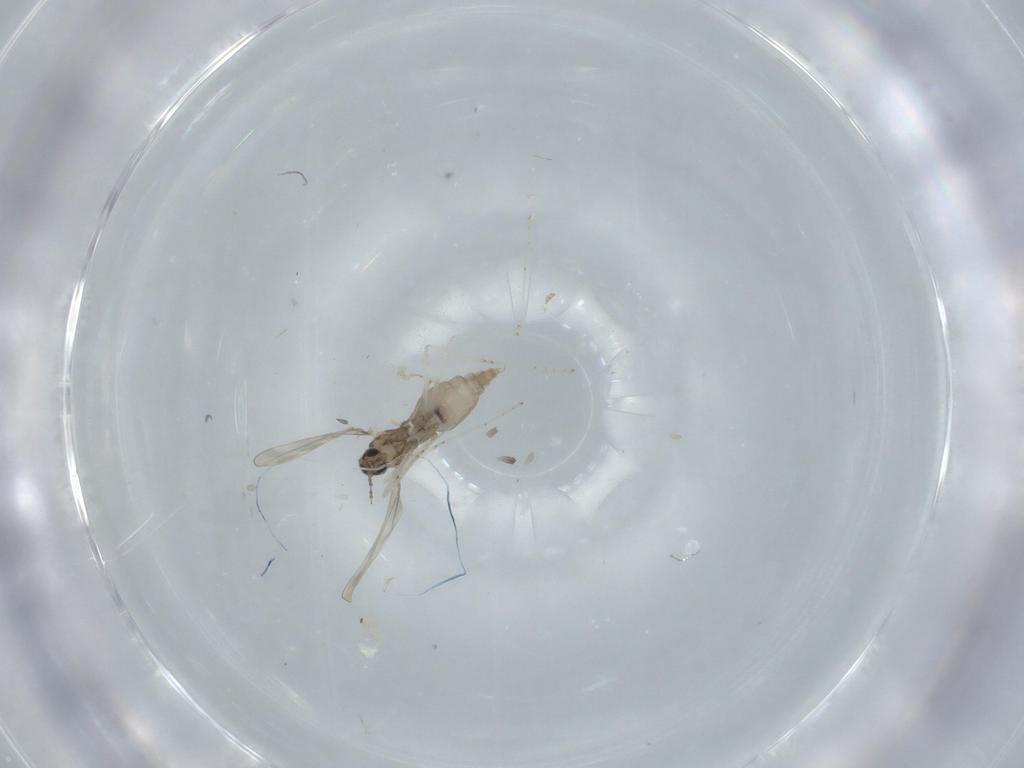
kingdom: Animalia
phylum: Arthropoda
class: Insecta
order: Diptera
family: Cecidomyiidae
